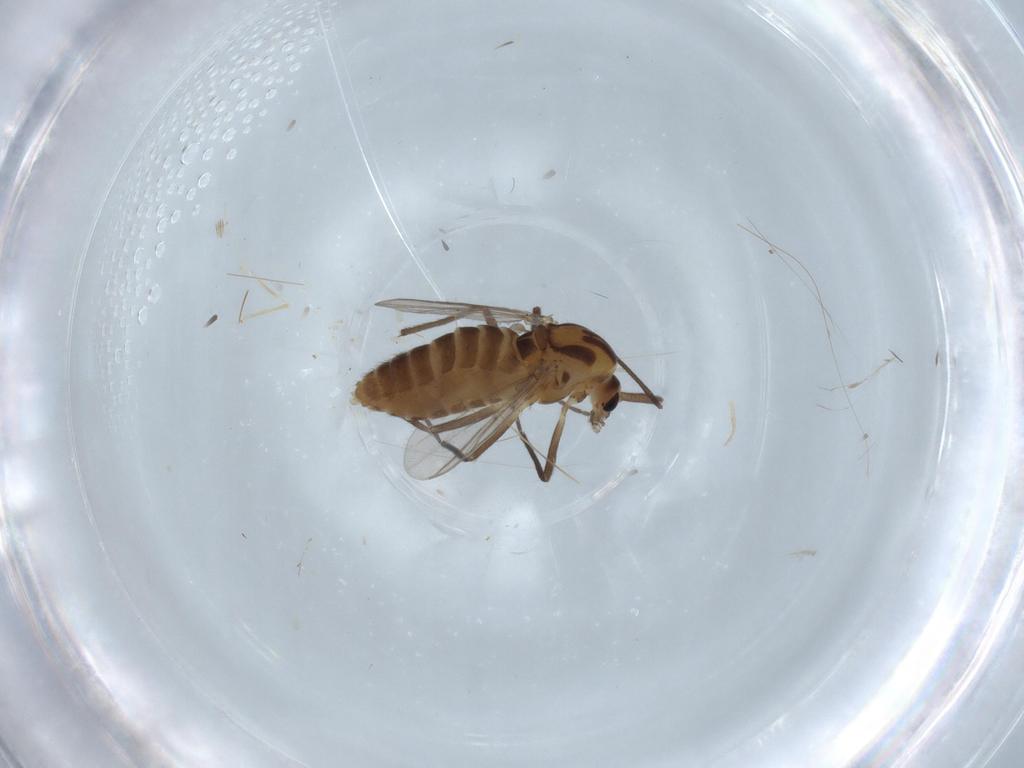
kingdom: Animalia
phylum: Arthropoda
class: Insecta
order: Diptera
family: Chironomidae
